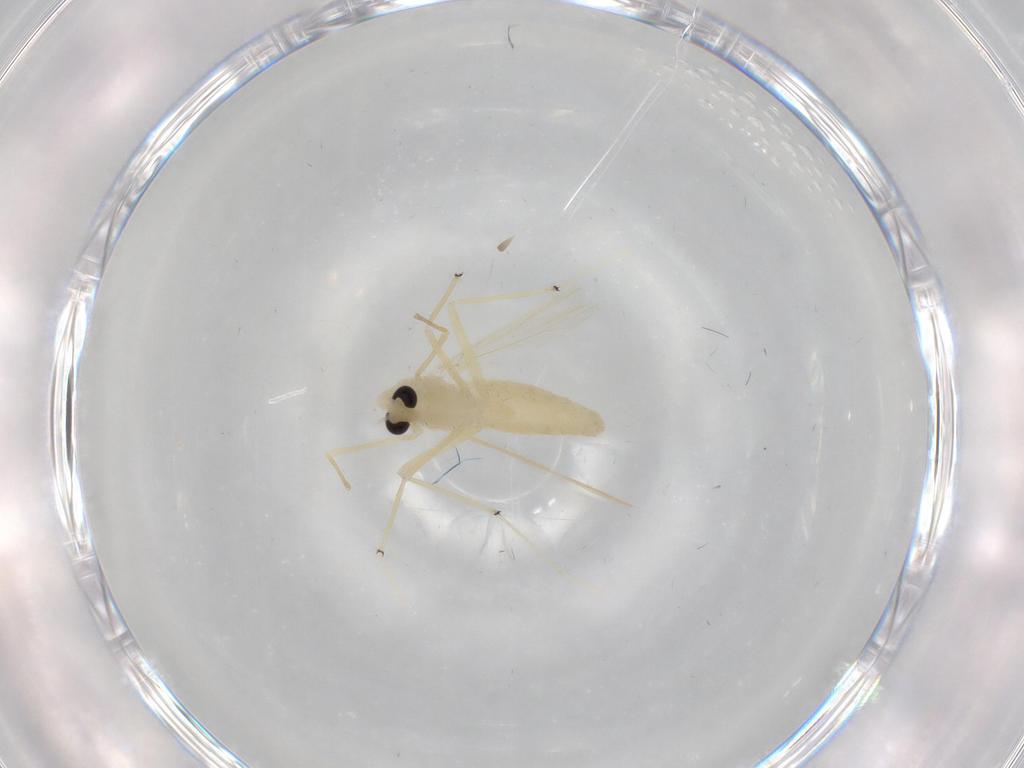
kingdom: Animalia
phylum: Arthropoda
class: Insecta
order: Diptera
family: Chironomidae
